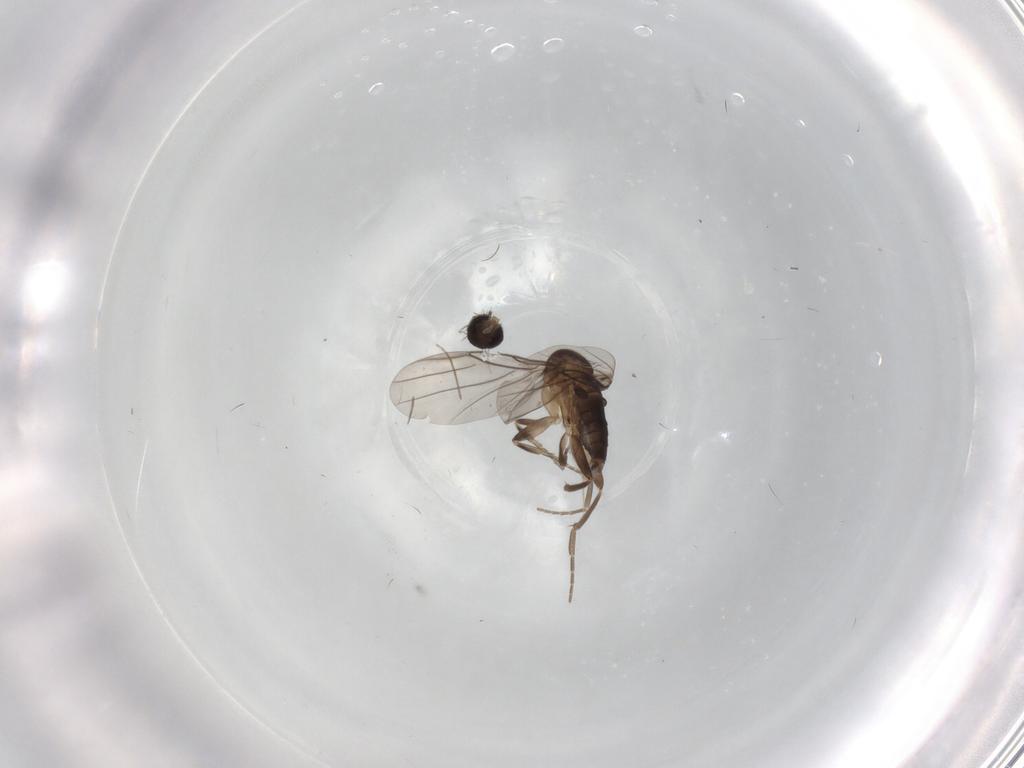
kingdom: Animalia
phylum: Arthropoda
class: Insecta
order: Diptera
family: Chironomidae
